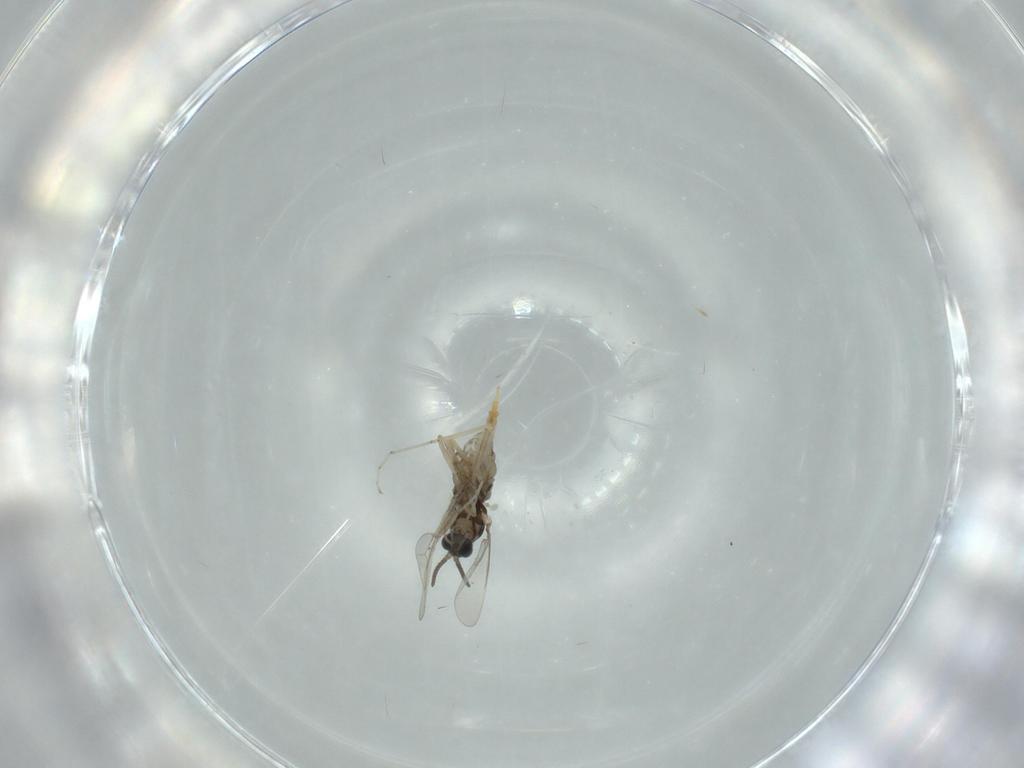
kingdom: Animalia
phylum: Arthropoda
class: Insecta
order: Diptera
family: Cecidomyiidae
